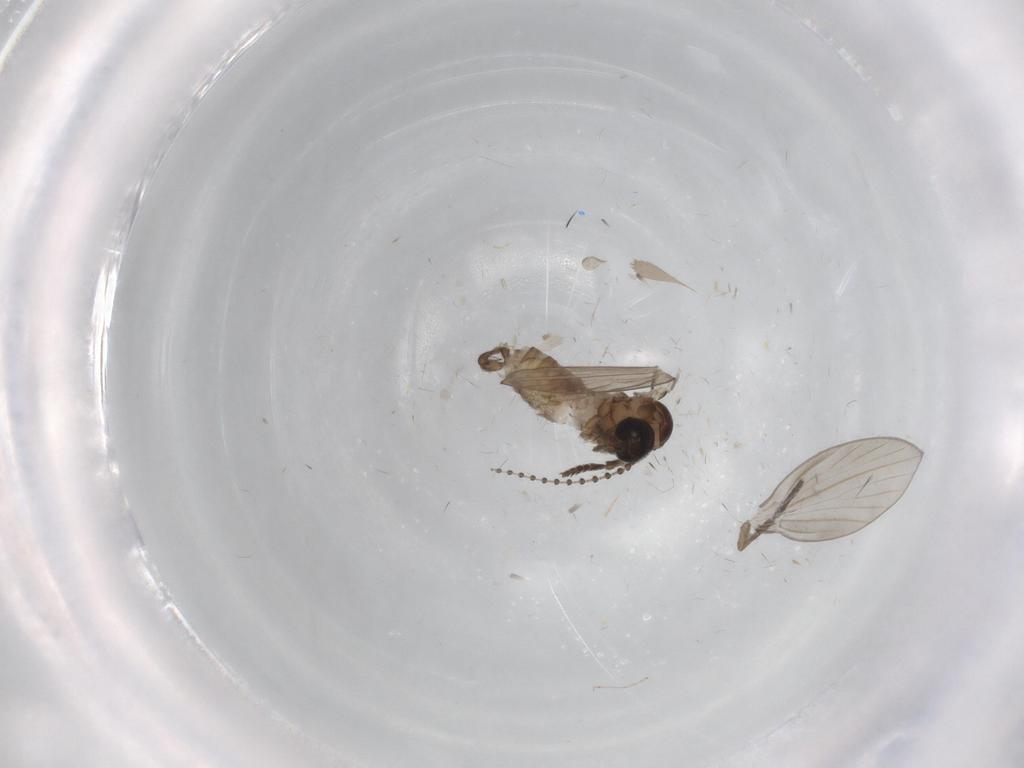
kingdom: Animalia
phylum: Arthropoda
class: Insecta
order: Diptera
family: Psychodidae
